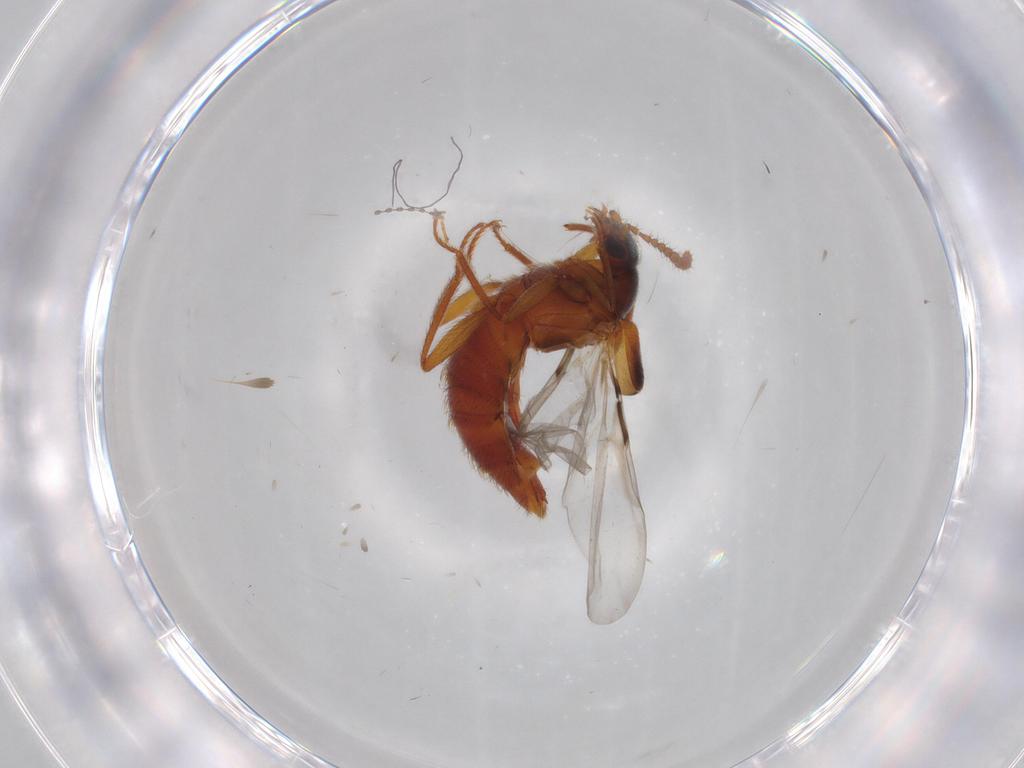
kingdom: Animalia
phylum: Arthropoda
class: Insecta
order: Coleoptera
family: Staphylinidae
